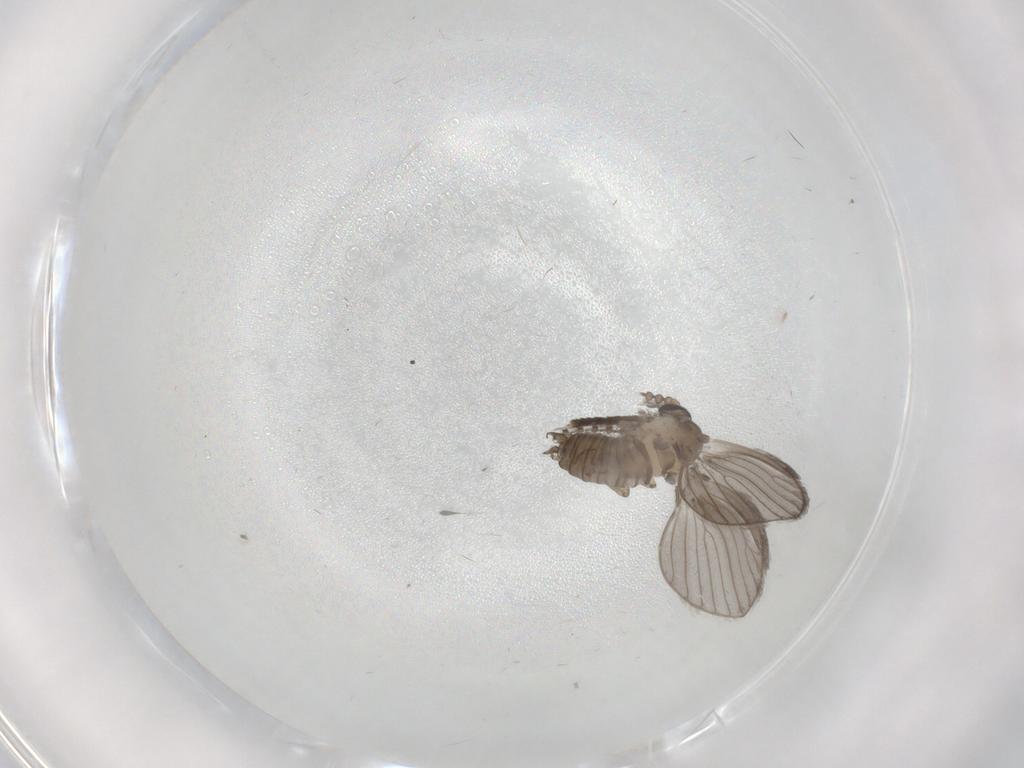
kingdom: Animalia
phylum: Arthropoda
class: Insecta
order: Diptera
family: Psychodidae
